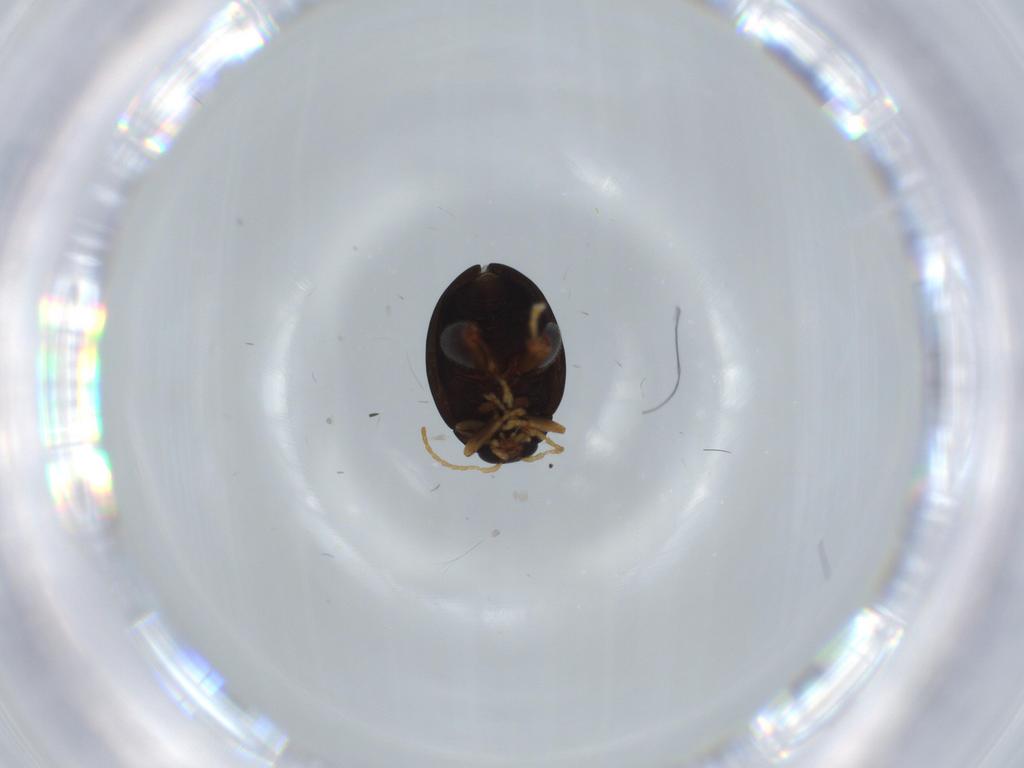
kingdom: Animalia
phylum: Arthropoda
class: Insecta
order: Coleoptera
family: Chrysomelidae
